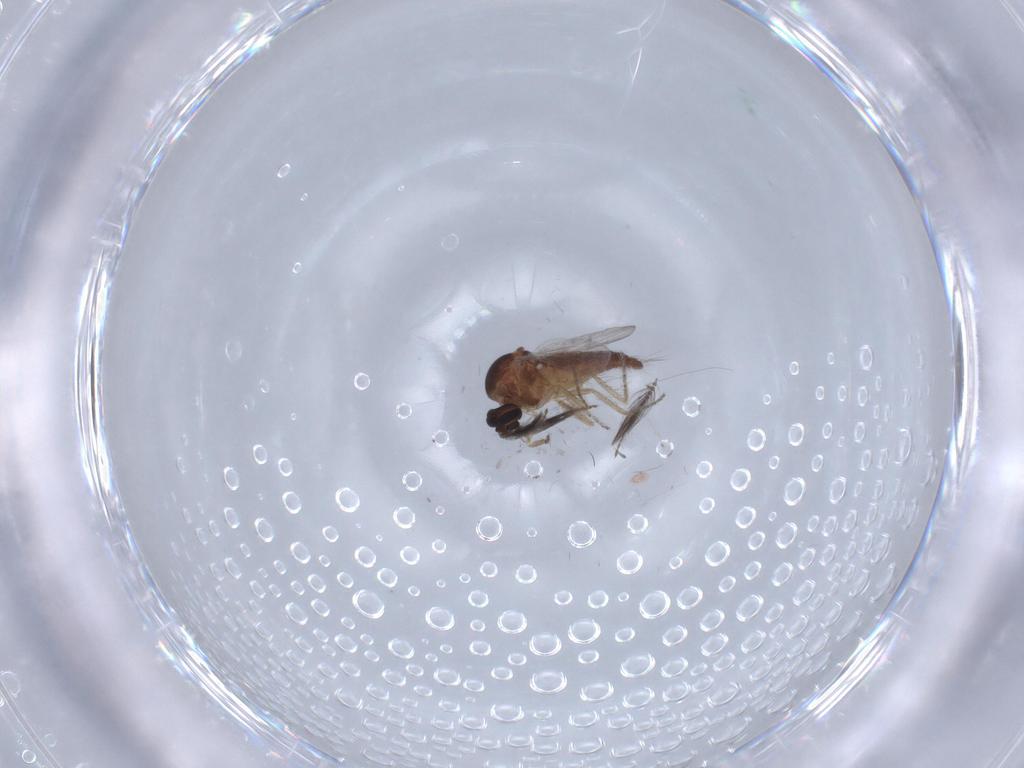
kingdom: Animalia
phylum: Arthropoda
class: Insecta
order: Diptera
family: Ceratopogonidae
